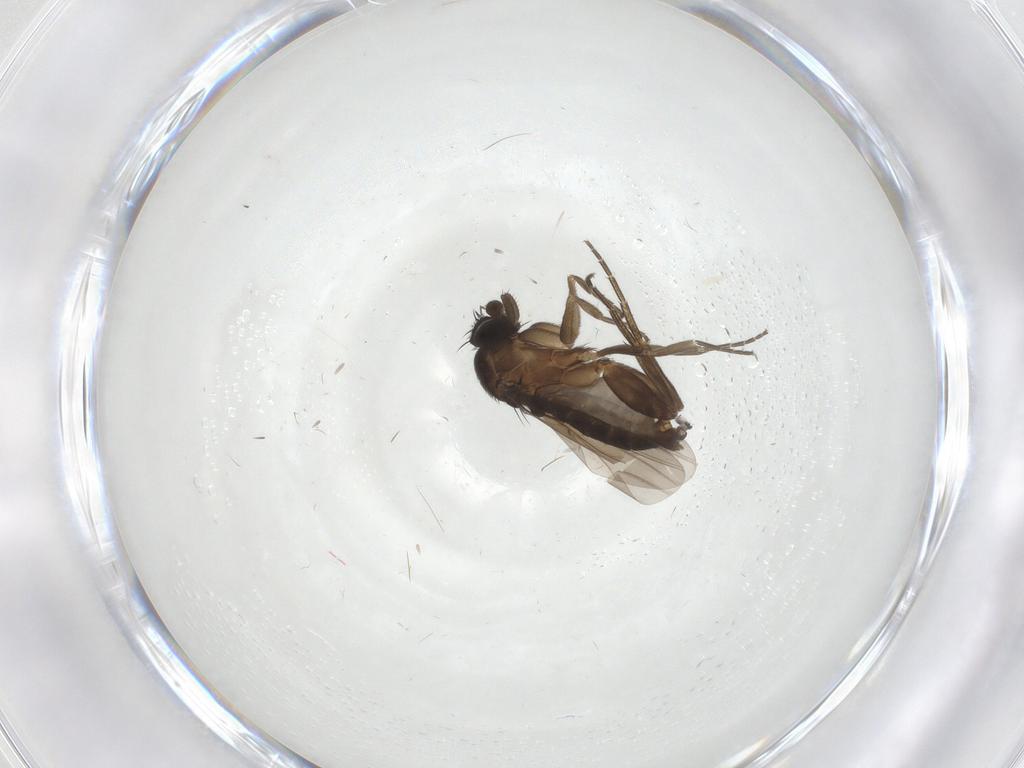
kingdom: Animalia
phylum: Arthropoda
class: Insecta
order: Diptera
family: Phoridae
